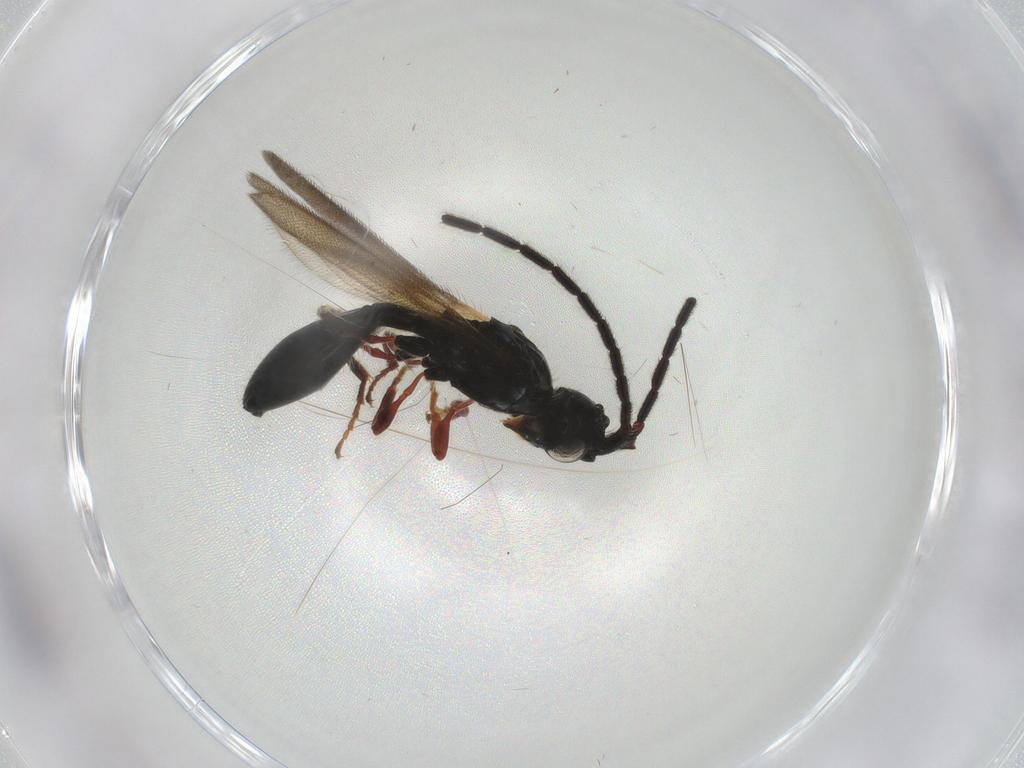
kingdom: Animalia
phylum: Arthropoda
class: Insecta
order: Hymenoptera
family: Diapriidae
